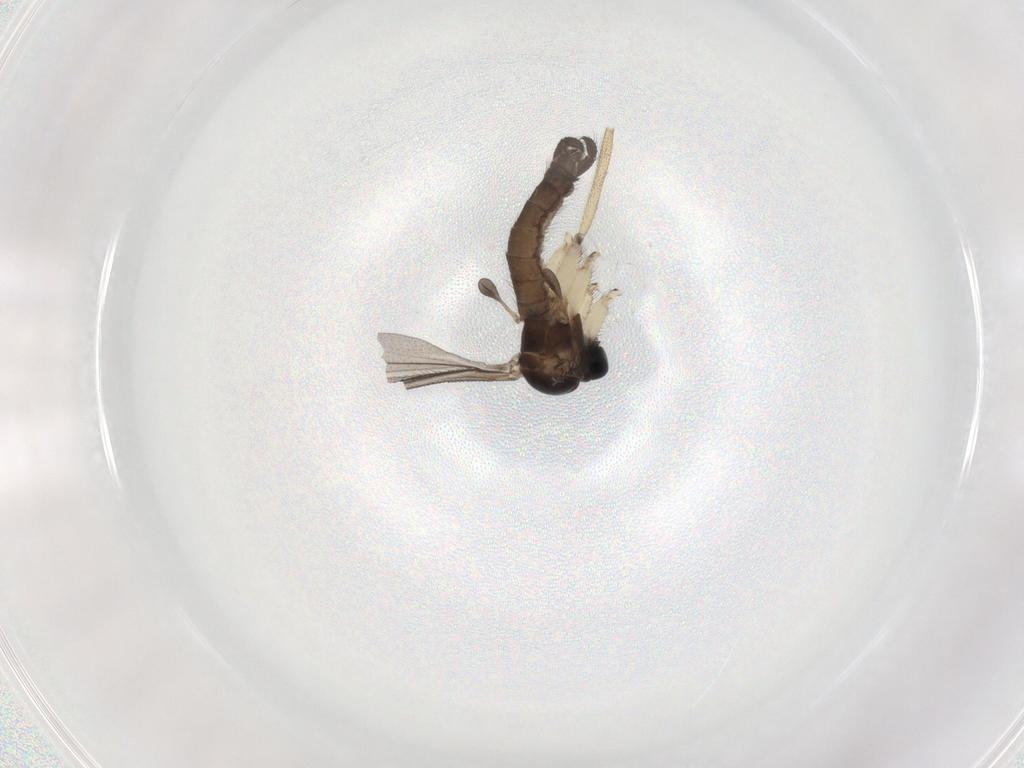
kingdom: Animalia
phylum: Arthropoda
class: Insecta
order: Diptera
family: Sciaridae
